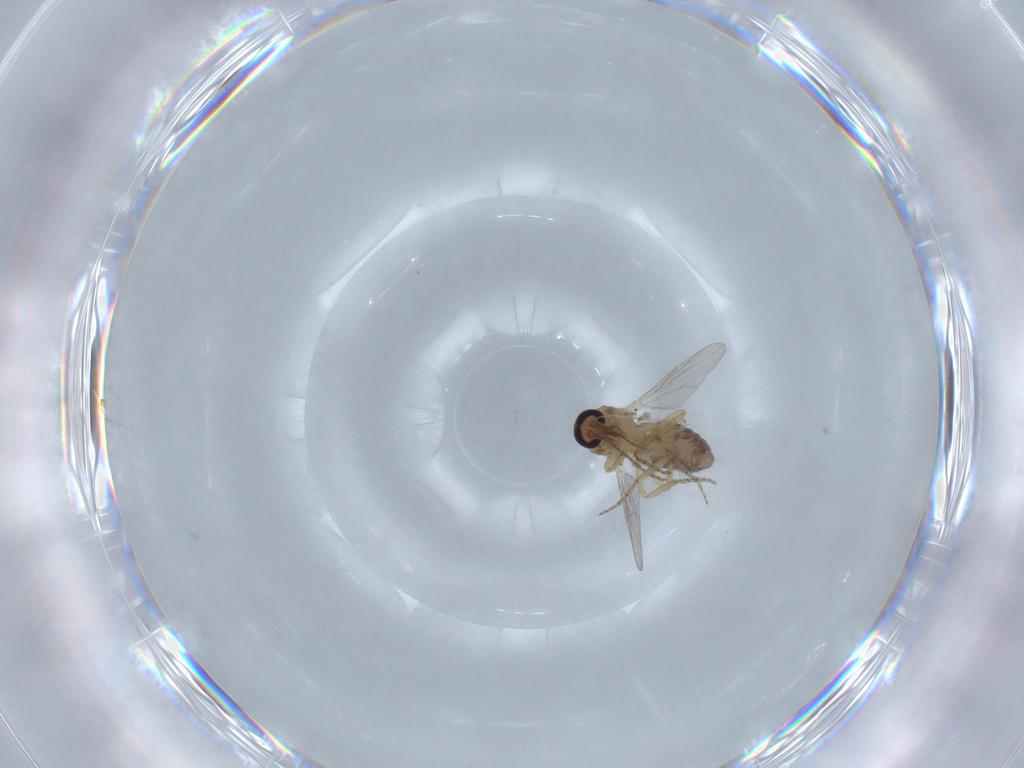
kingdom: Animalia
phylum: Arthropoda
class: Insecta
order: Diptera
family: Ceratopogonidae
